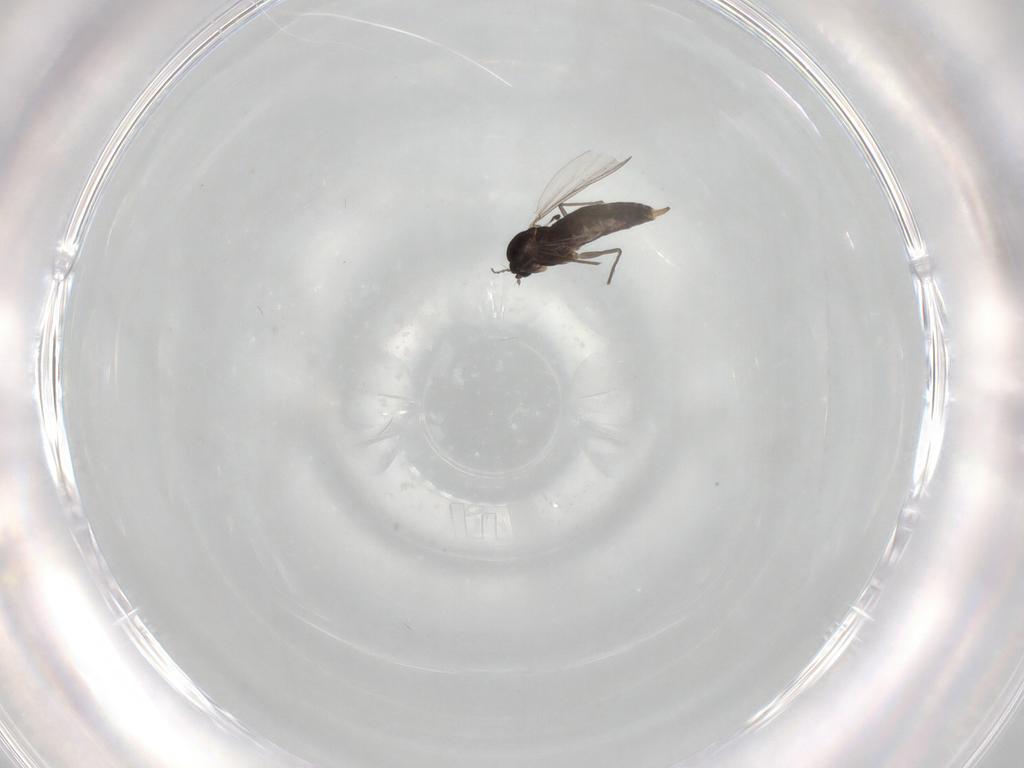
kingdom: Animalia
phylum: Arthropoda
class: Insecta
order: Diptera
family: Chironomidae
